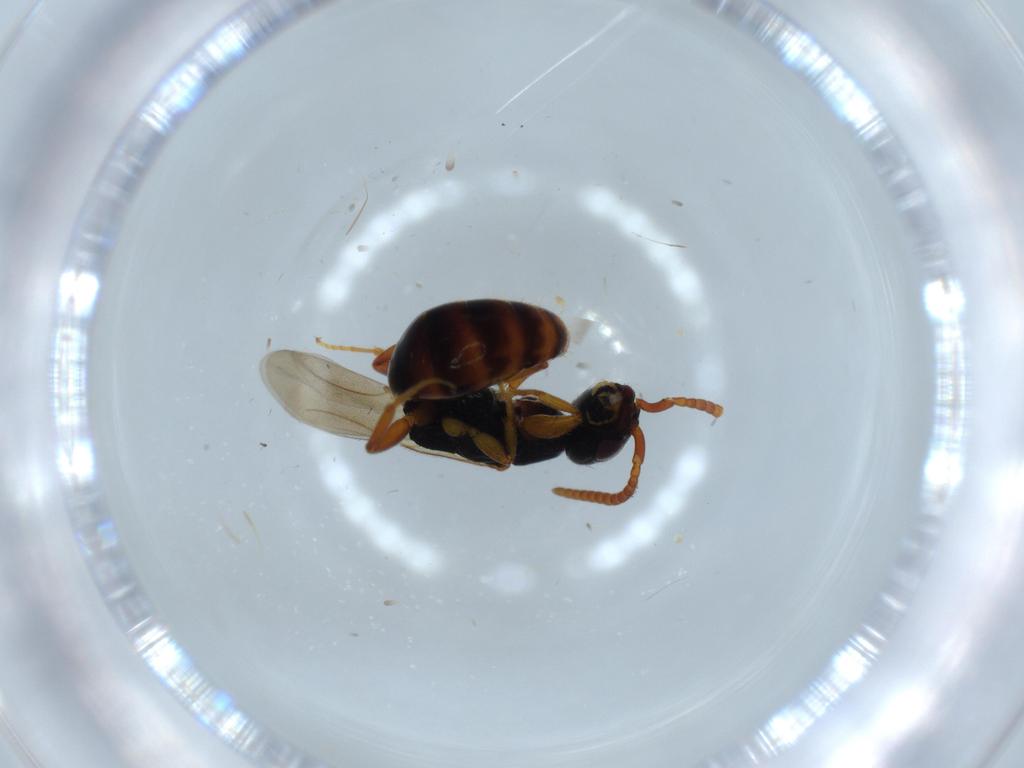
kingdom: Animalia
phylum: Arthropoda
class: Insecta
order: Hymenoptera
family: Bethylidae
